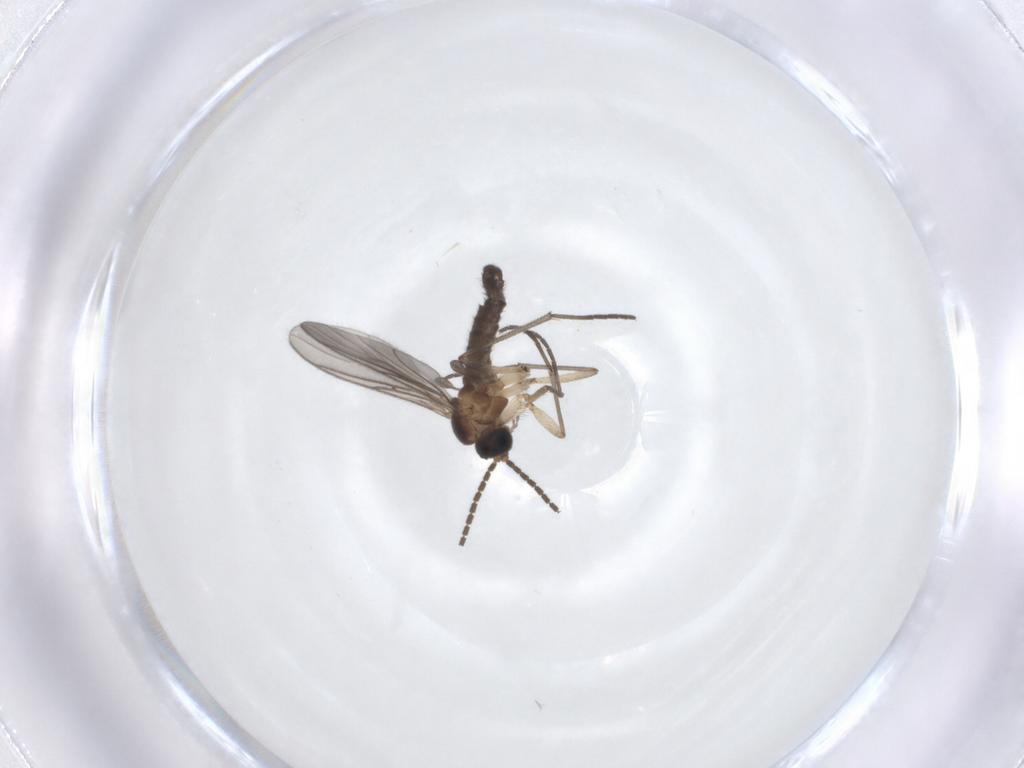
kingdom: Animalia
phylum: Arthropoda
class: Insecta
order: Diptera
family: Sciaridae
